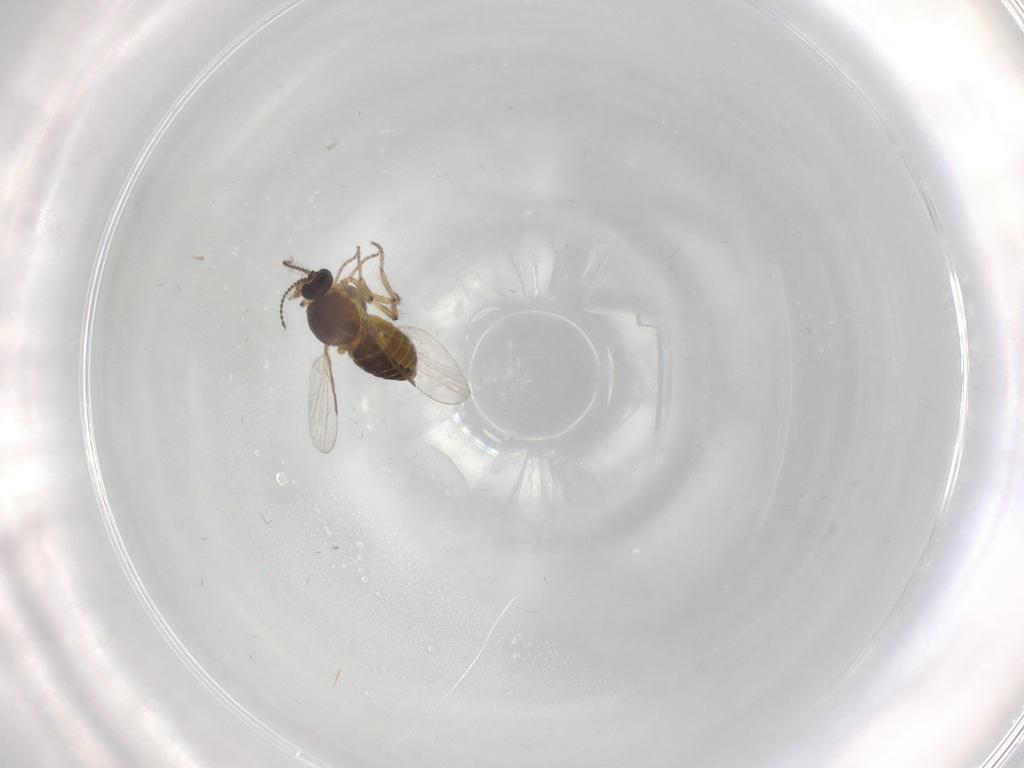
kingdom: Animalia
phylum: Arthropoda
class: Insecta
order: Diptera
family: Ceratopogonidae
